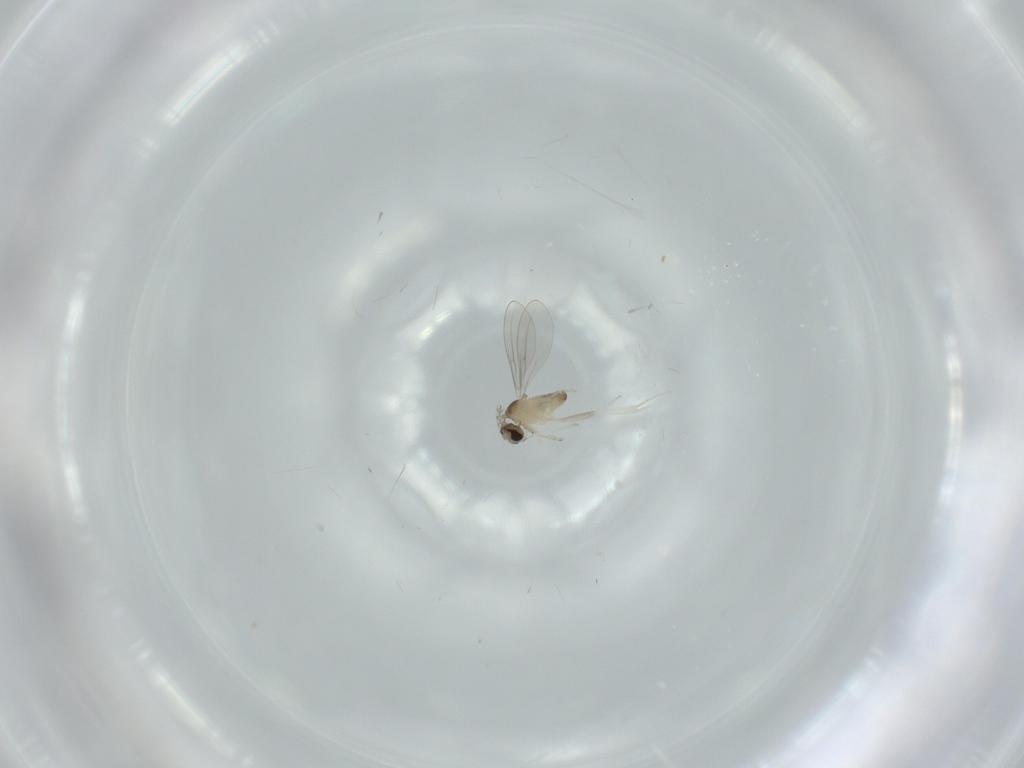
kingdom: Animalia
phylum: Arthropoda
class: Insecta
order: Diptera
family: Cecidomyiidae
